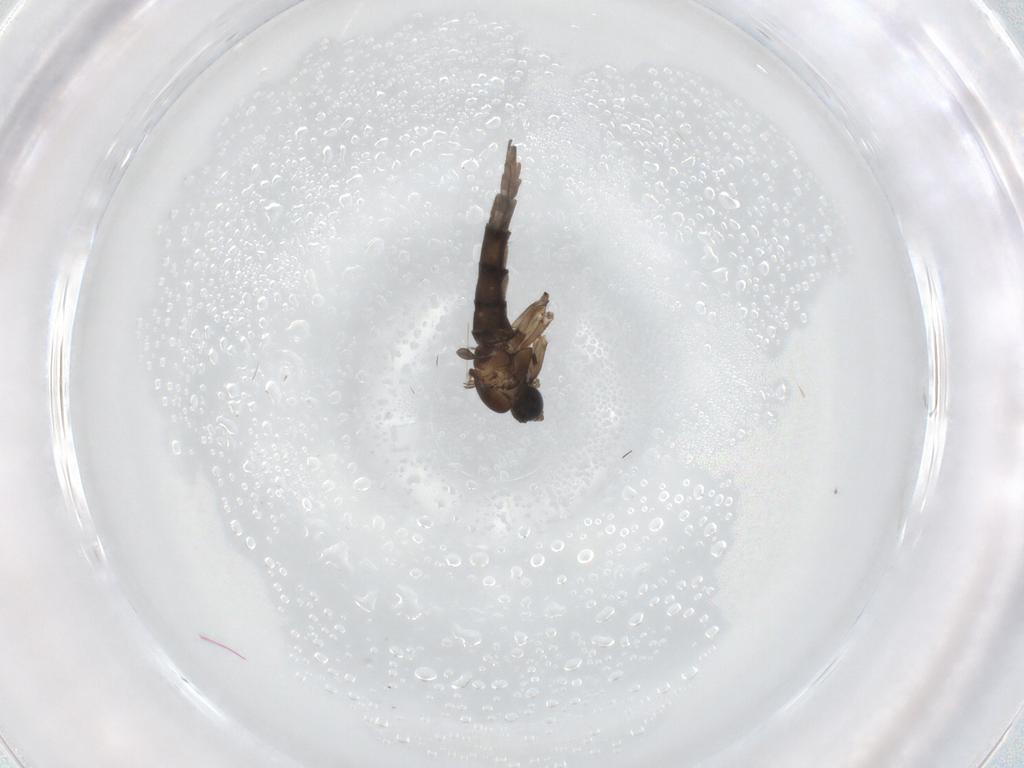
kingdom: Animalia
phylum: Arthropoda
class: Insecta
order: Diptera
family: Sciaridae
